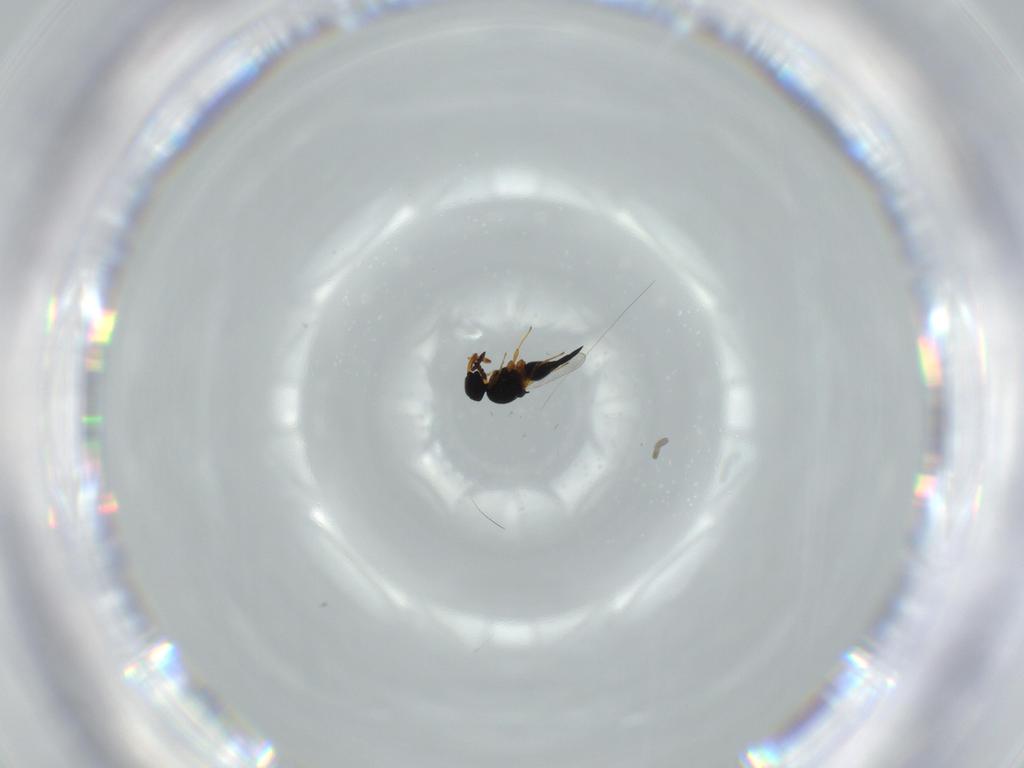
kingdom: Animalia
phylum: Arthropoda
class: Insecta
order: Hymenoptera
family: Platygastridae
